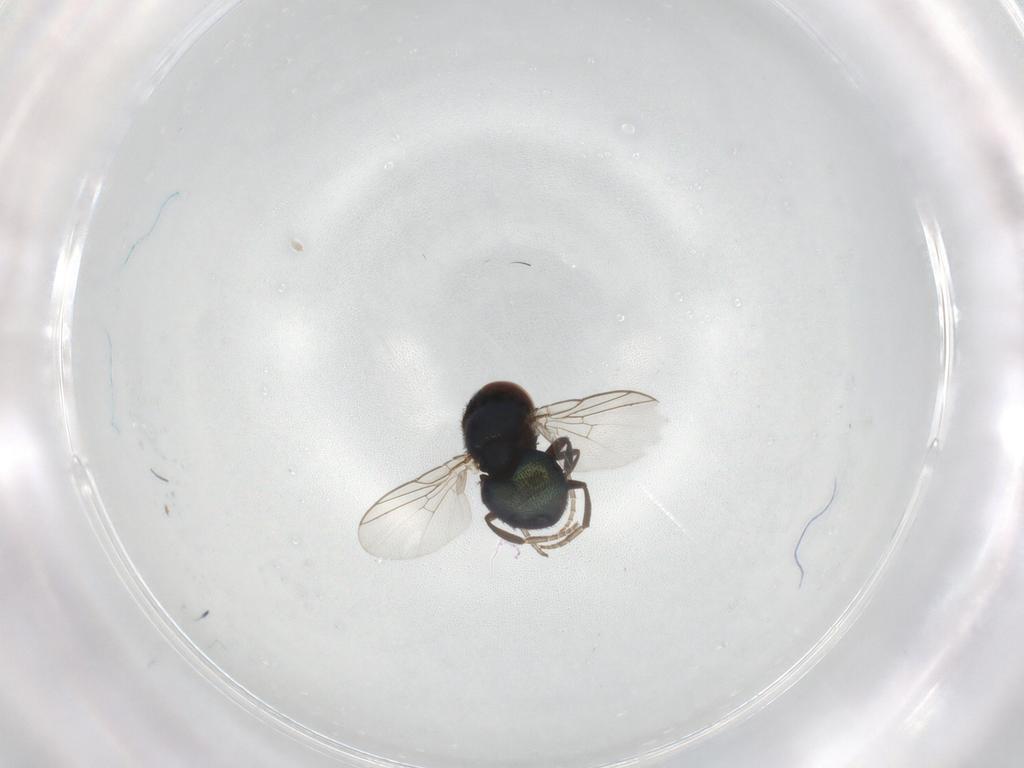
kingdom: Animalia
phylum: Arthropoda
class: Insecta
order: Diptera
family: Cryptochetidae
